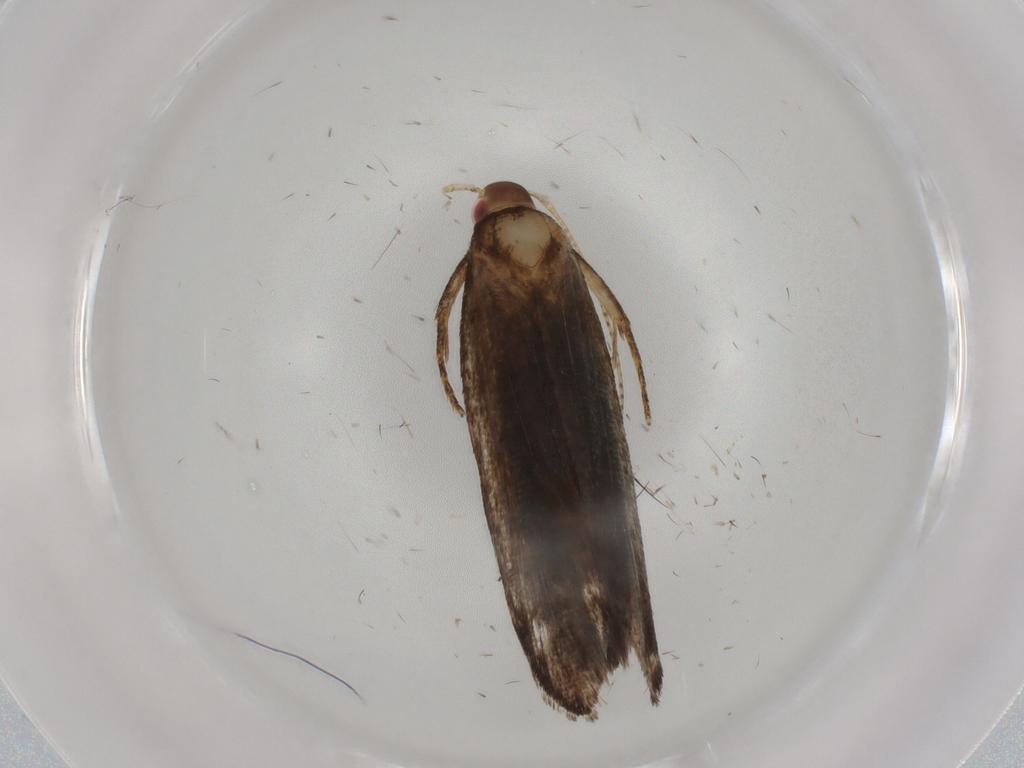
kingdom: Animalia
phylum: Arthropoda
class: Insecta
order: Lepidoptera
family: Gelechiidae
